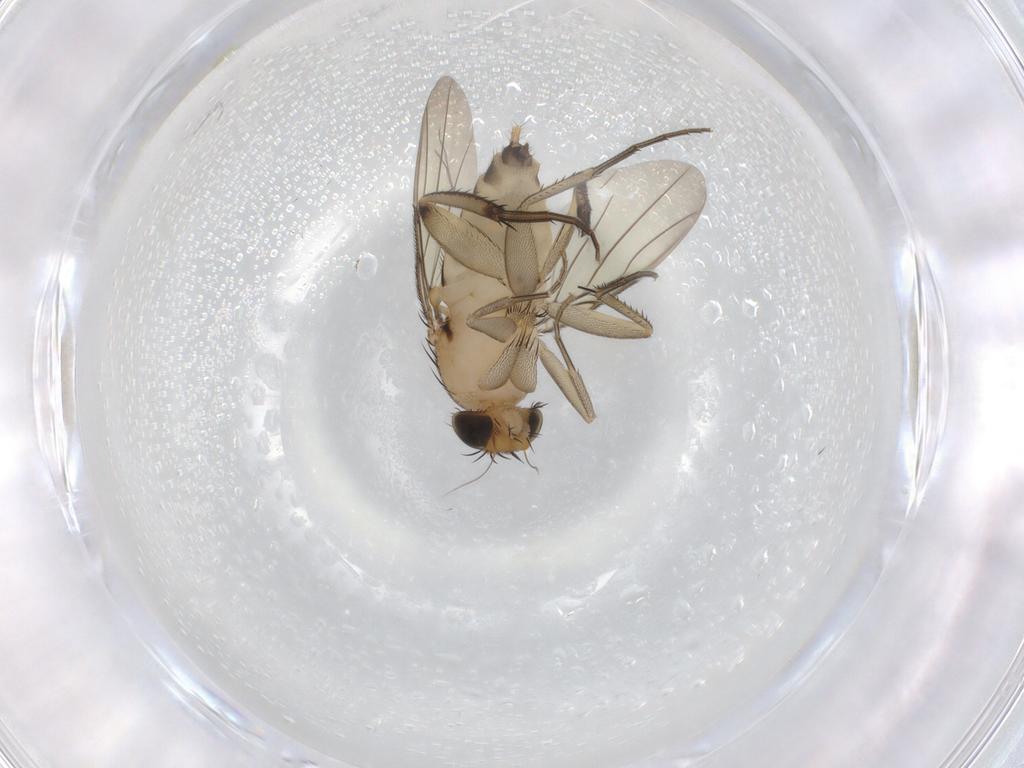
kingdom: Animalia
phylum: Arthropoda
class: Insecta
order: Diptera
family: Phoridae
